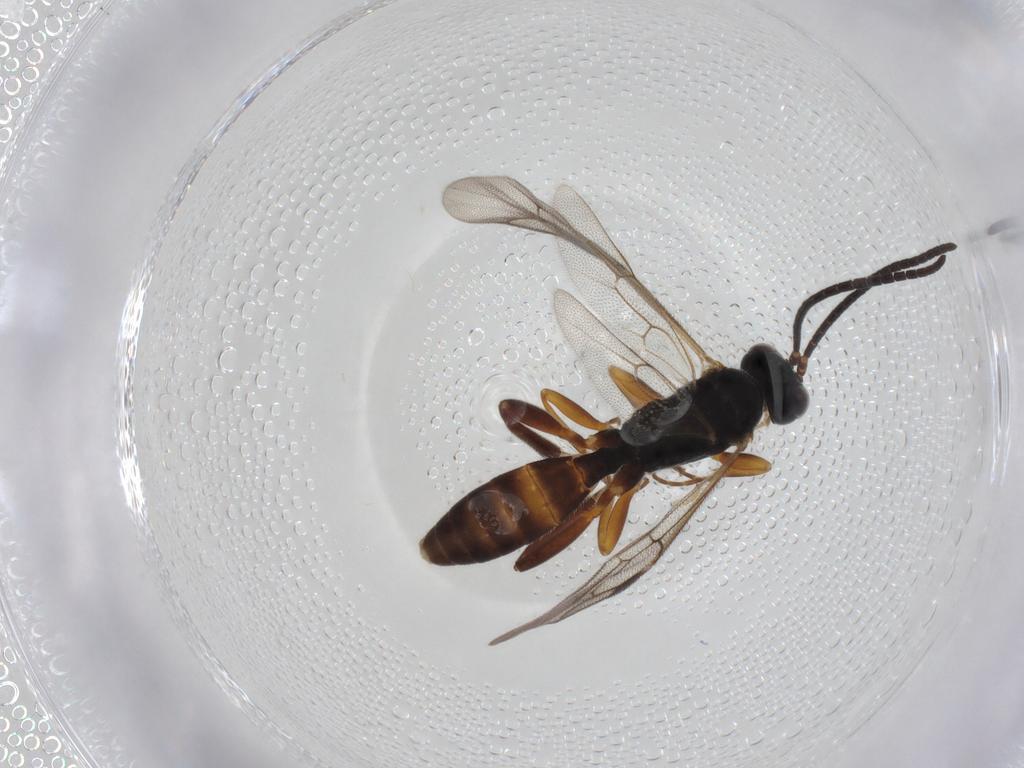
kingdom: Animalia
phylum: Arthropoda
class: Insecta
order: Hymenoptera
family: Ichneumonidae
